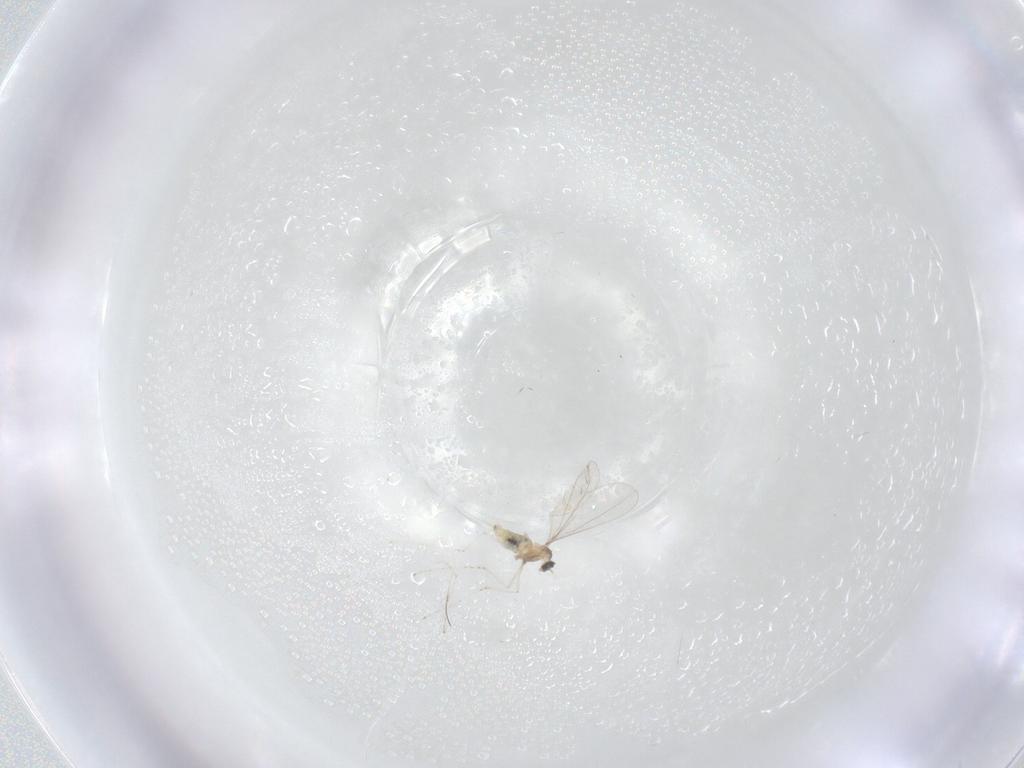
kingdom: Animalia
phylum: Arthropoda
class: Insecta
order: Diptera
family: Cecidomyiidae
